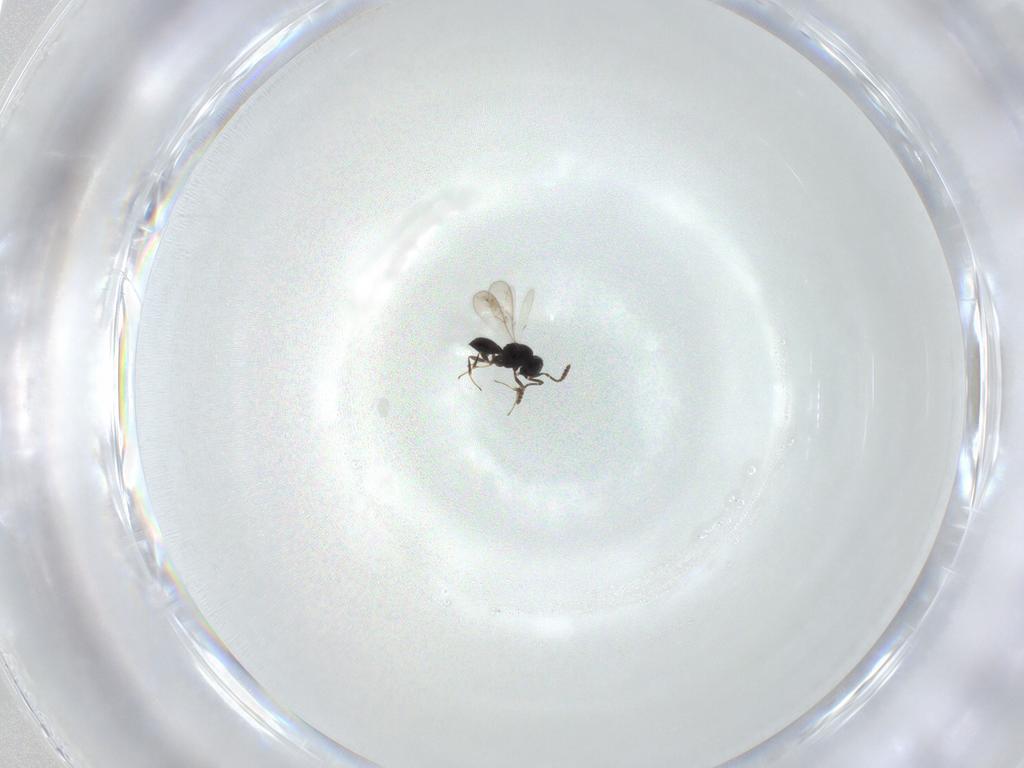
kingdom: Animalia
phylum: Arthropoda
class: Insecta
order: Hymenoptera
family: Scelionidae
